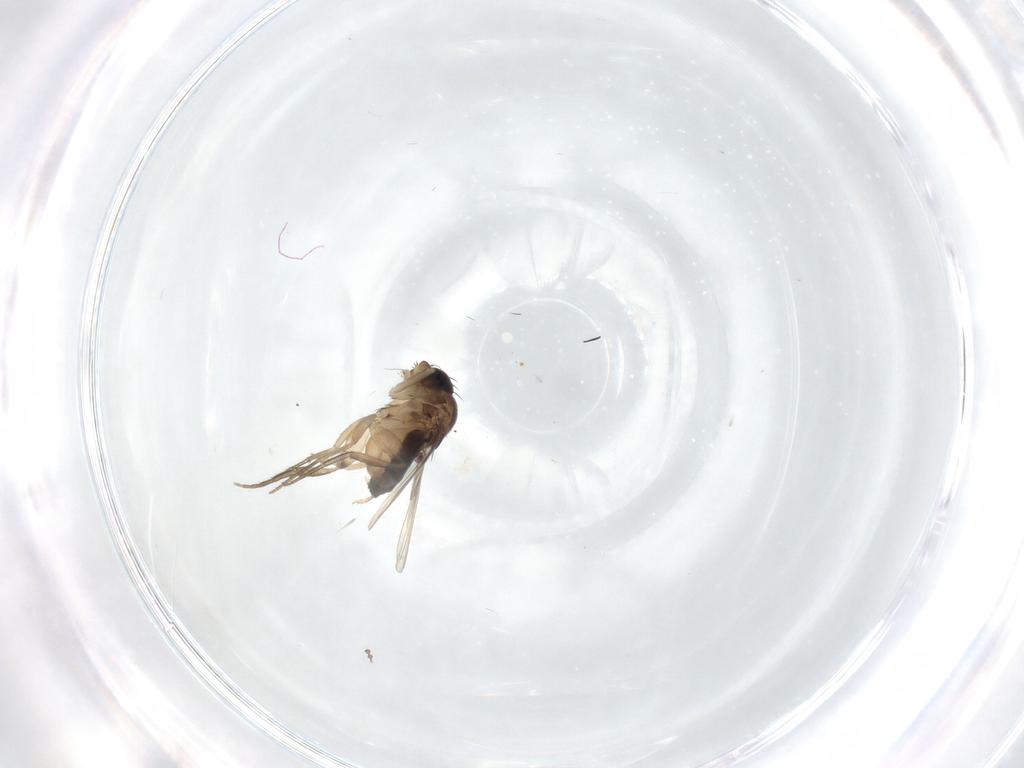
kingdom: Animalia
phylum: Arthropoda
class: Insecta
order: Diptera
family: Phoridae
